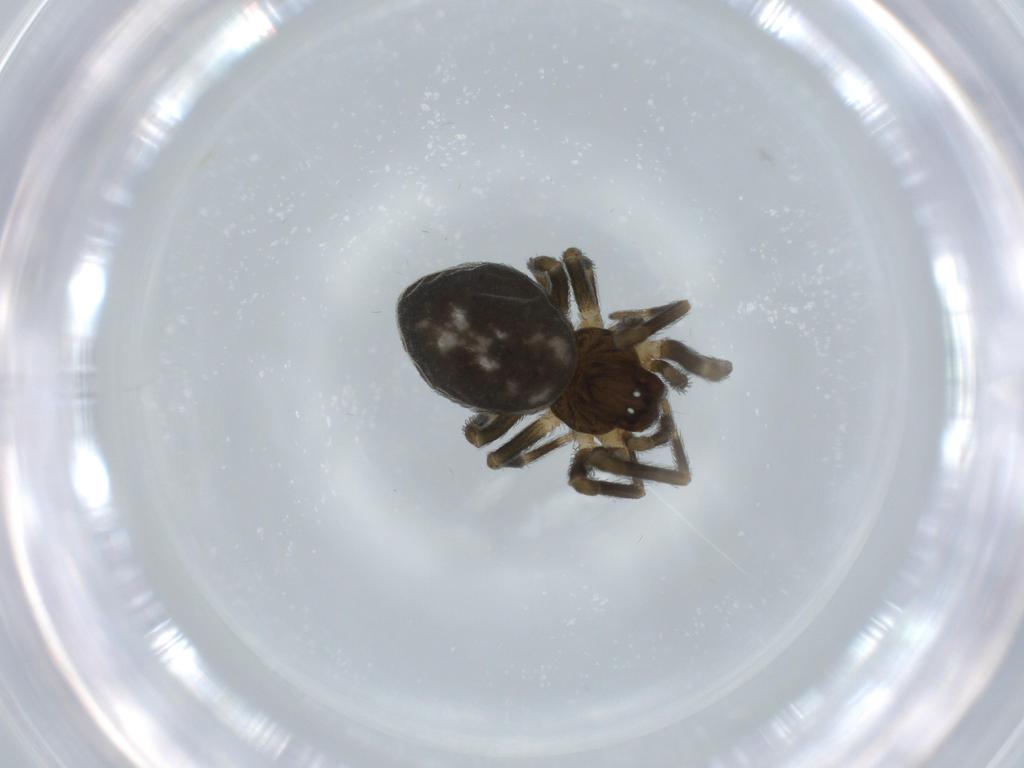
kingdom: Animalia
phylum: Arthropoda
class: Arachnida
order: Araneae
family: Dictynidae
